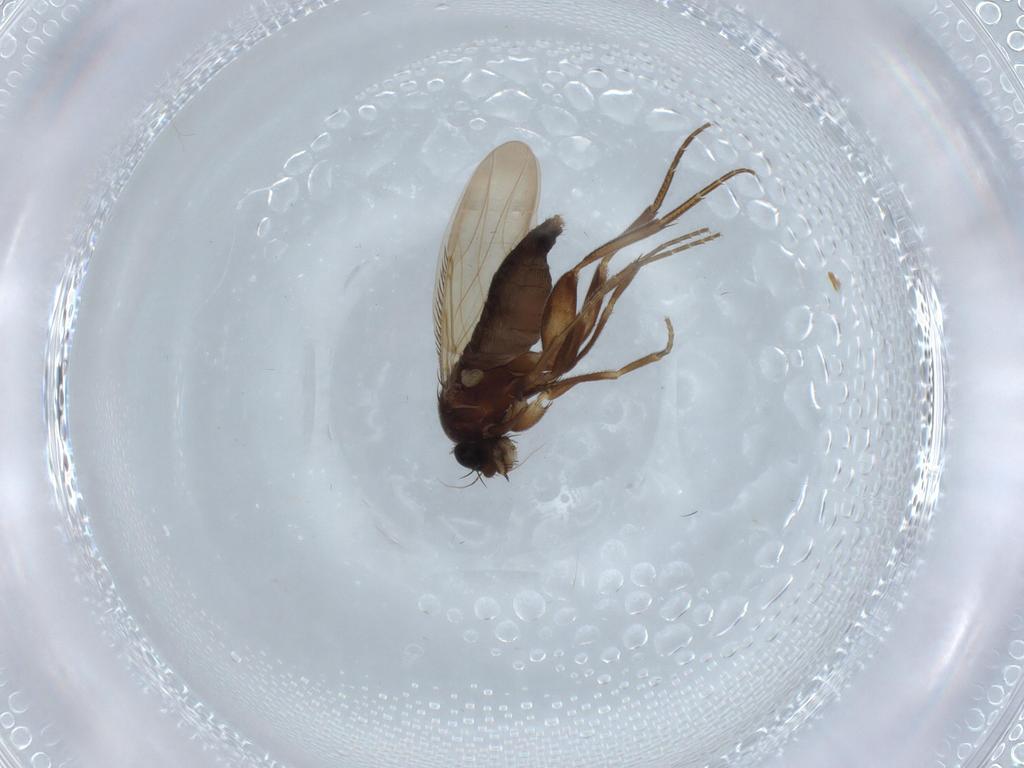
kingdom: Animalia
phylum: Arthropoda
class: Insecta
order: Diptera
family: Phoridae
